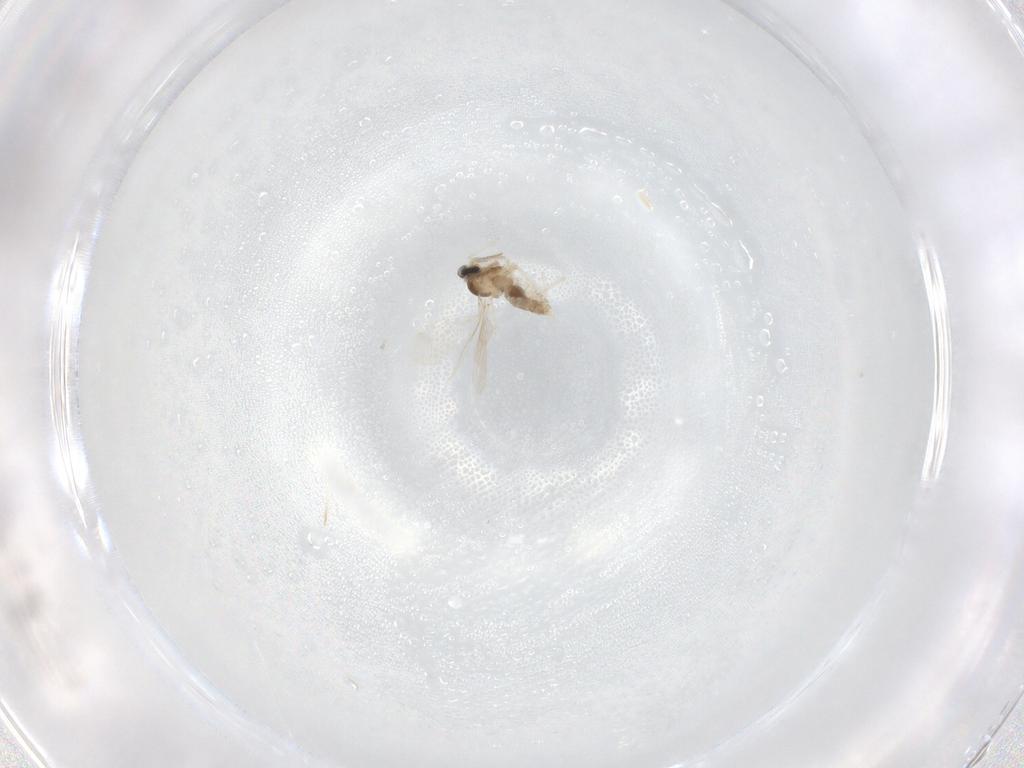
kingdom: Animalia
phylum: Arthropoda
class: Insecta
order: Diptera
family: Cecidomyiidae
